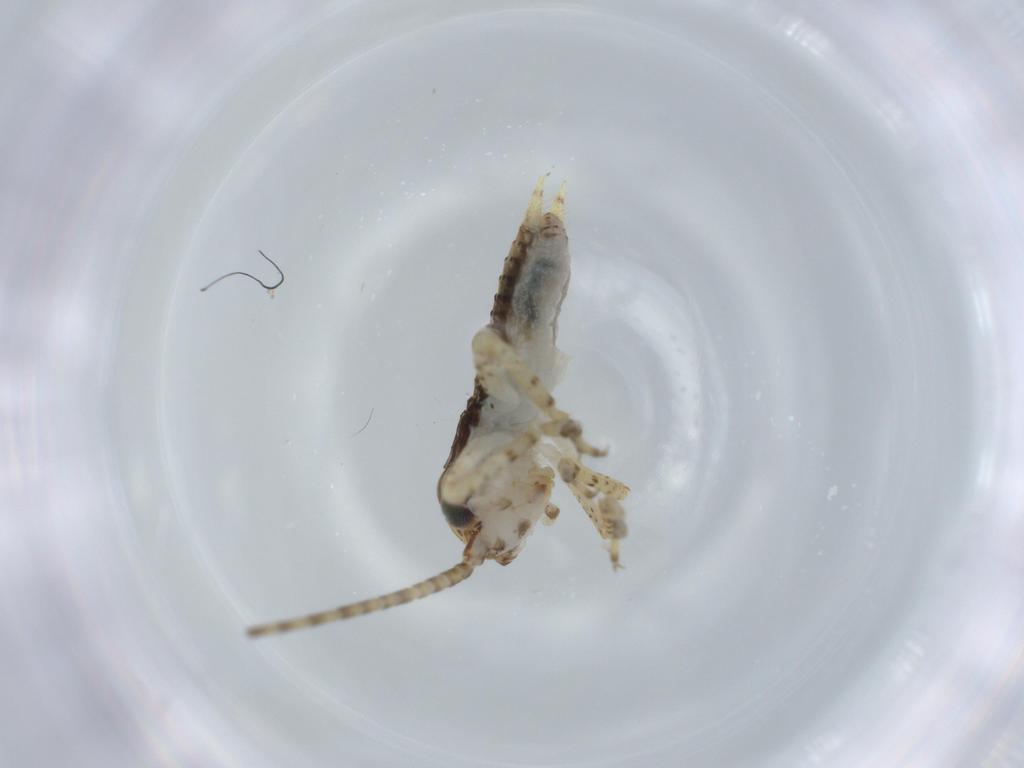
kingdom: Animalia
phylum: Arthropoda
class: Insecta
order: Orthoptera
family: Gryllidae
